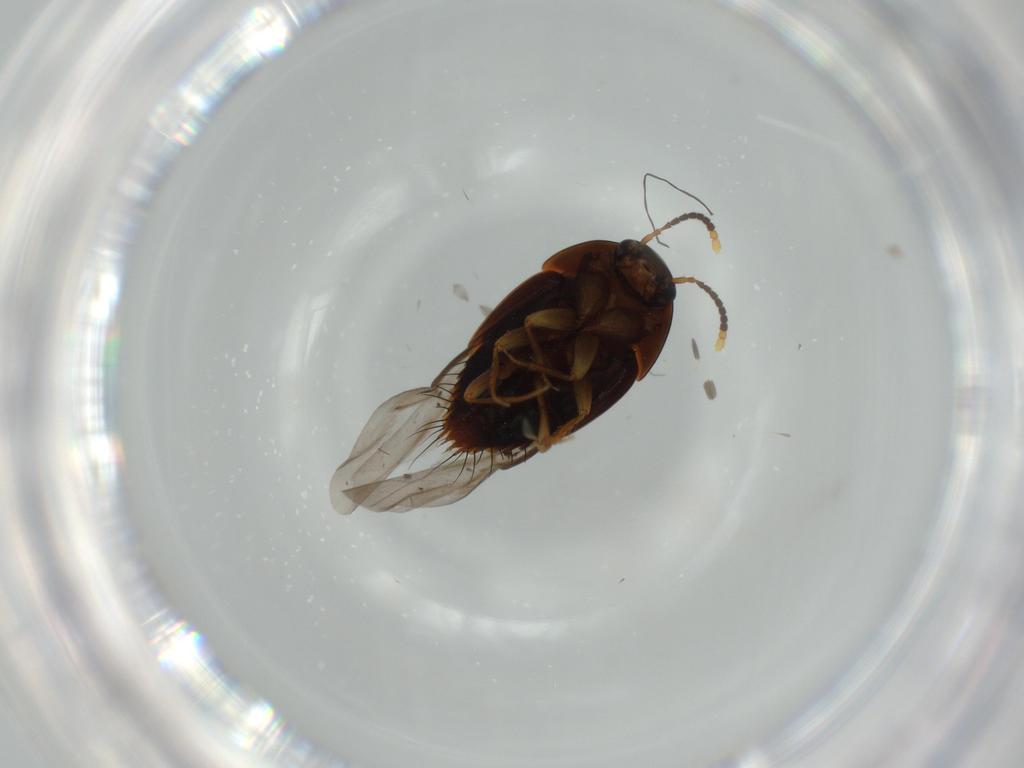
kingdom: Animalia
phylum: Arthropoda
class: Insecta
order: Coleoptera
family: Staphylinidae
